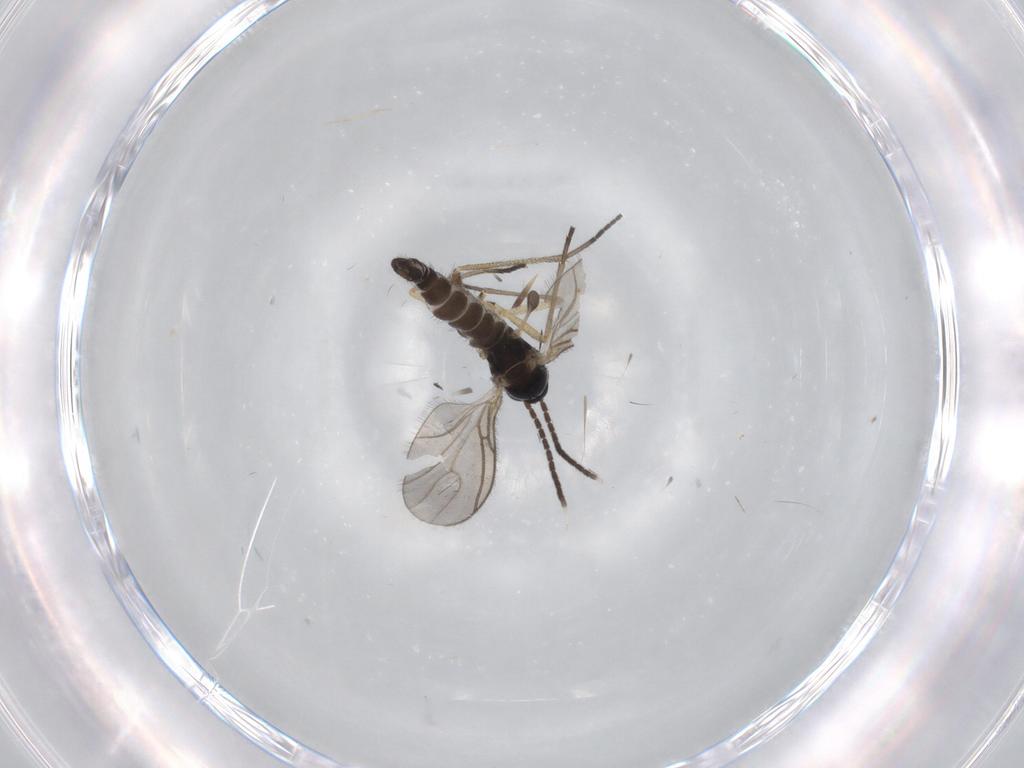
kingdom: Animalia
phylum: Arthropoda
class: Insecta
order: Diptera
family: Sciaridae
